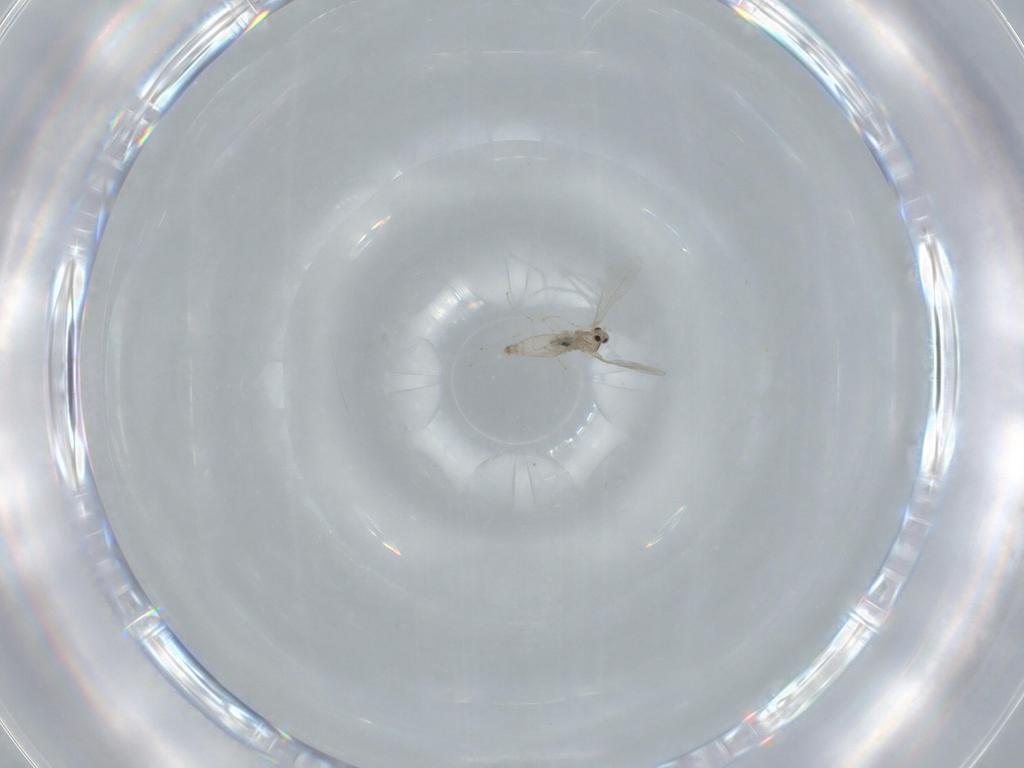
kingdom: Animalia
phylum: Arthropoda
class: Insecta
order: Diptera
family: Cecidomyiidae
